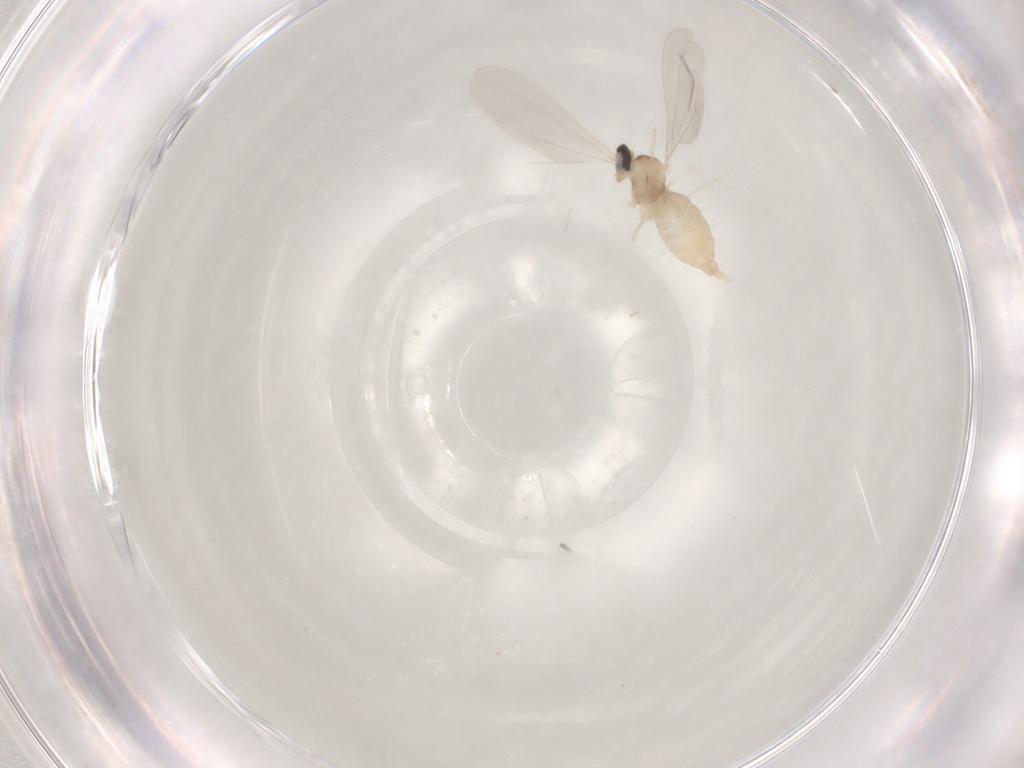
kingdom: Animalia
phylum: Arthropoda
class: Insecta
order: Diptera
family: Cecidomyiidae
